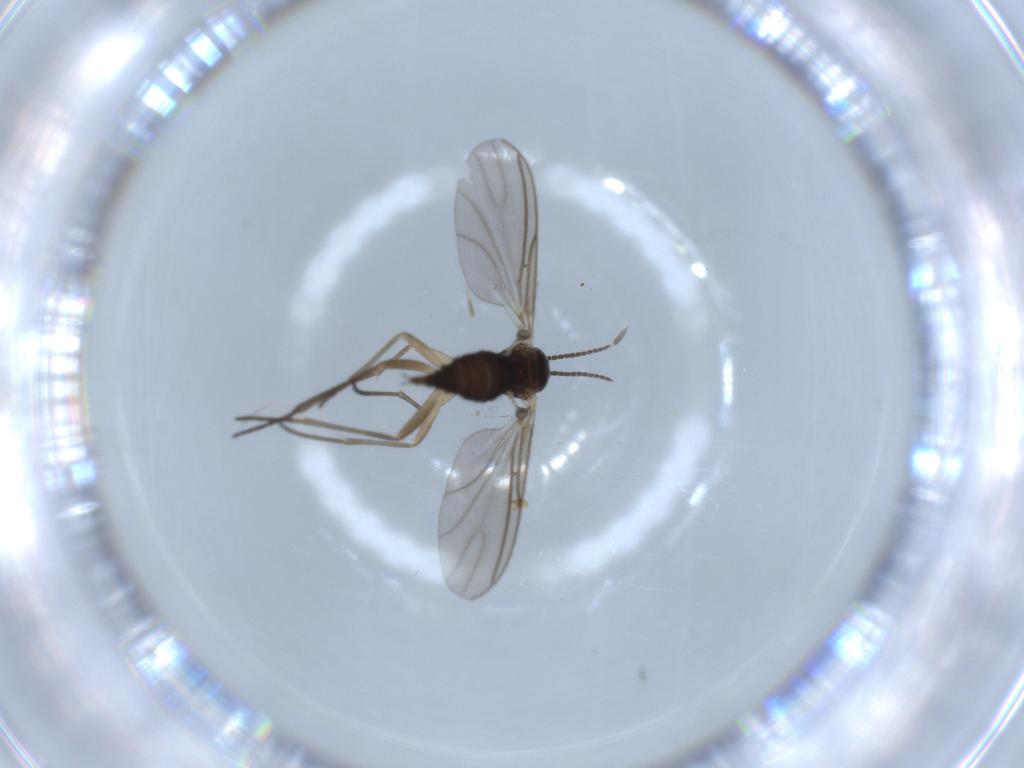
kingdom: Animalia
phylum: Arthropoda
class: Insecta
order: Diptera
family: Sciaridae
